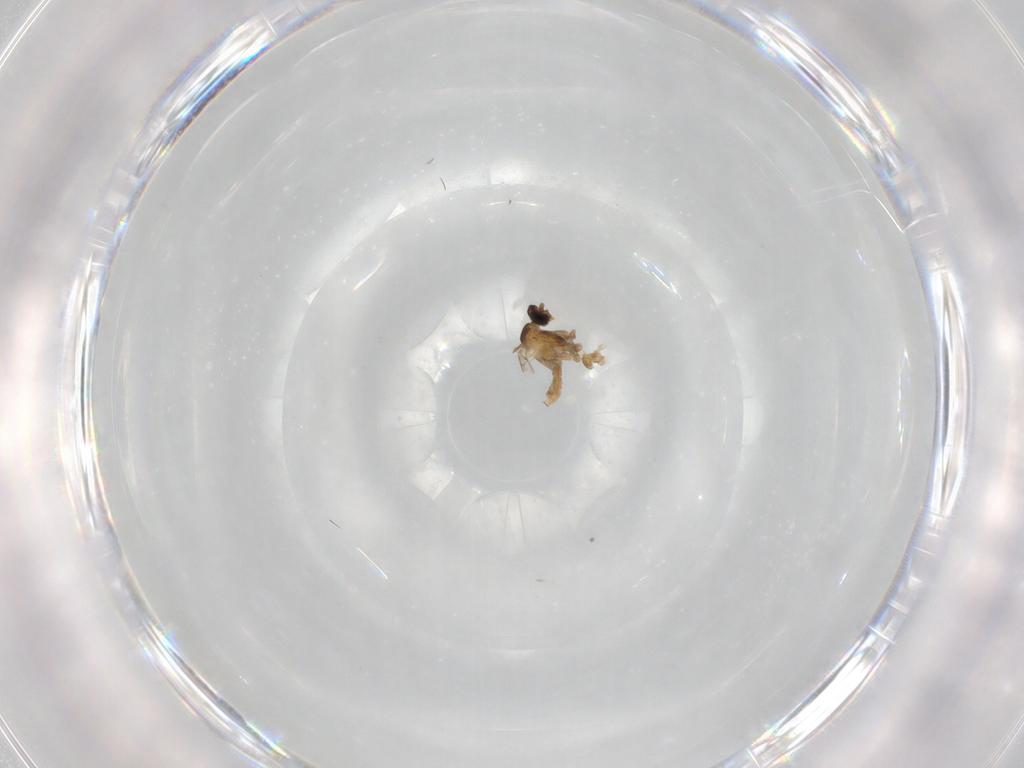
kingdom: Animalia
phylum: Arthropoda
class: Insecta
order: Diptera
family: Cecidomyiidae
